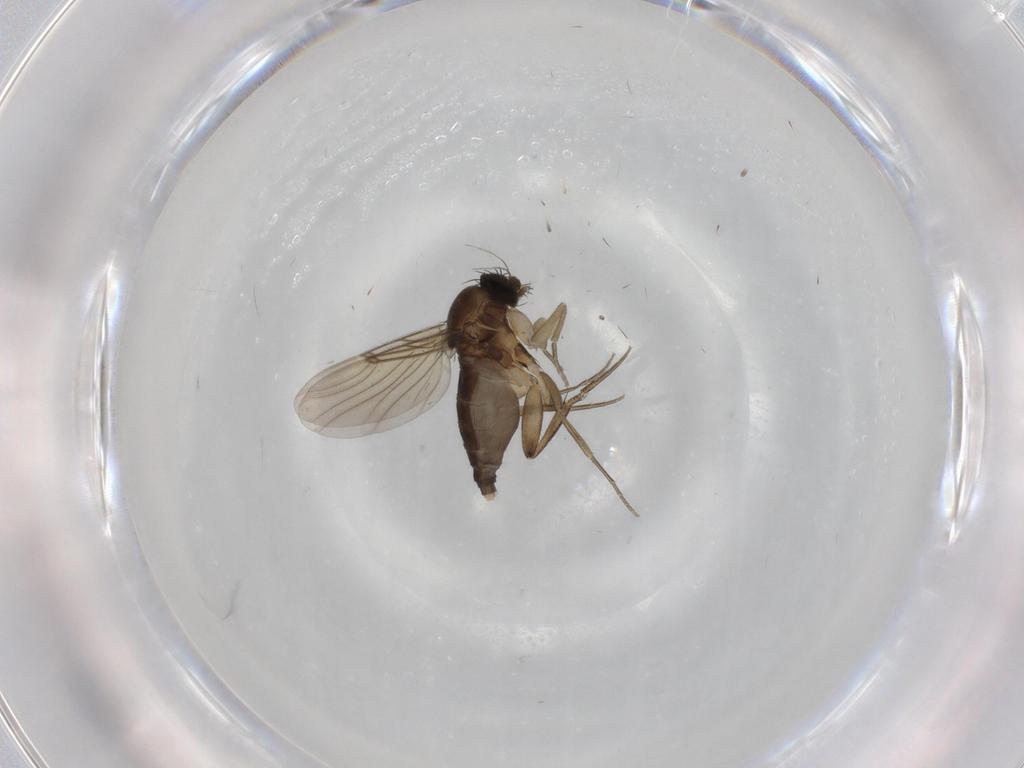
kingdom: Animalia
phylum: Arthropoda
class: Insecta
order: Diptera
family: Phoridae
